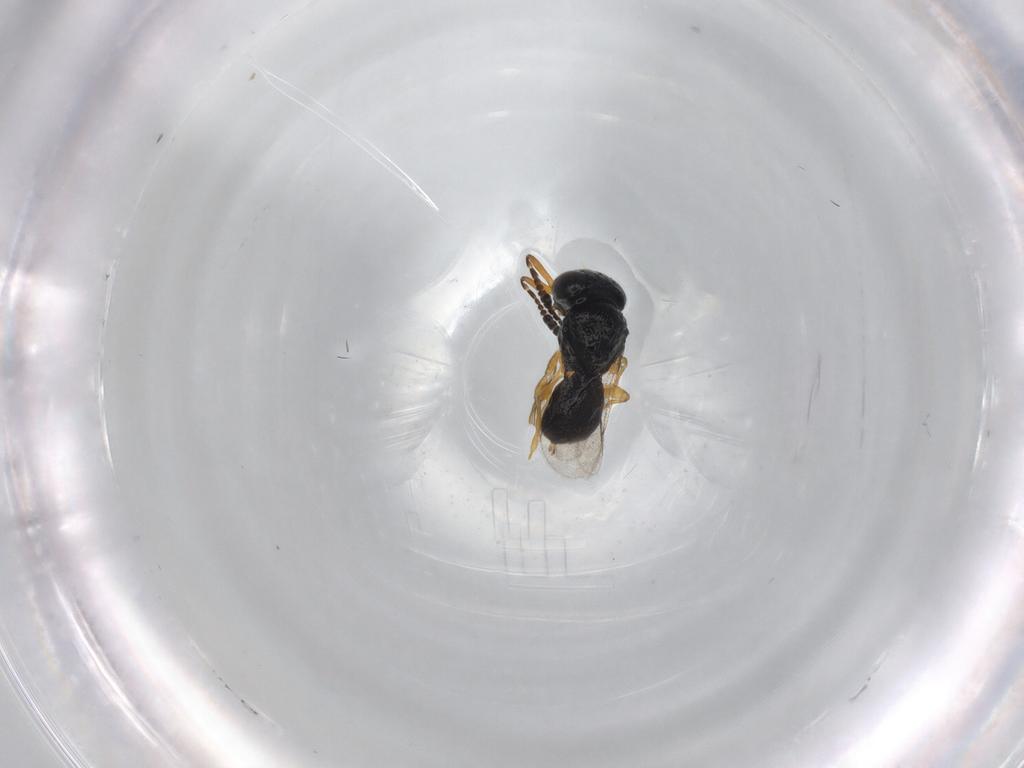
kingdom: Animalia
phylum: Arthropoda
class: Insecta
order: Hymenoptera
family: Scelionidae
